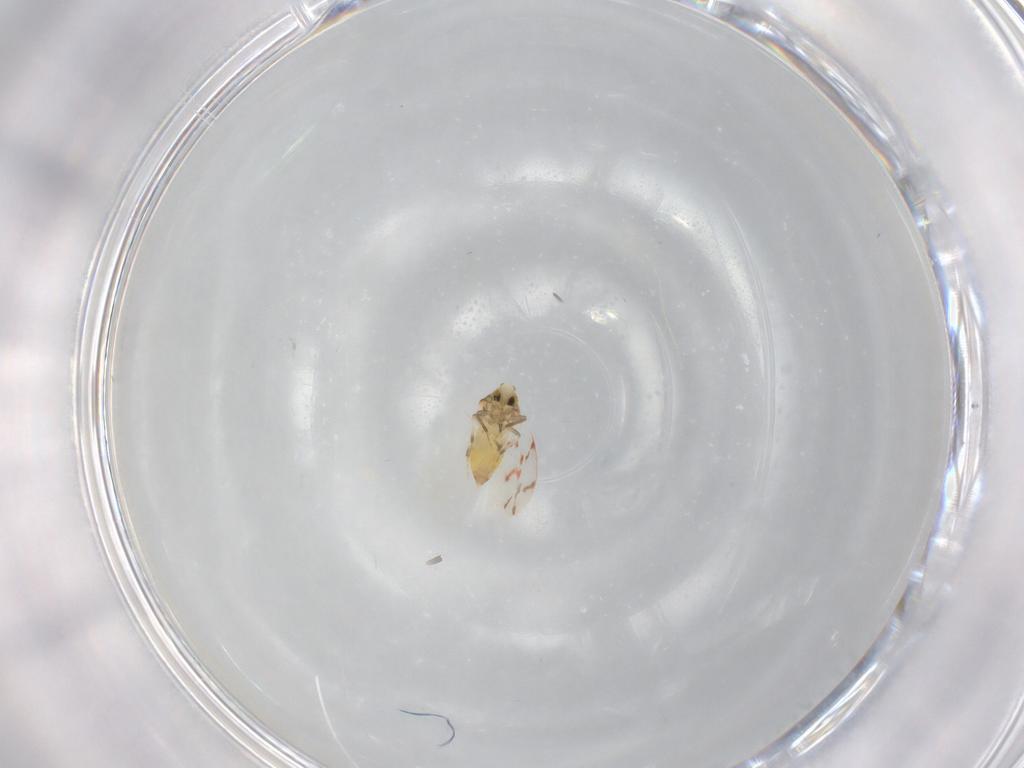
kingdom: Animalia
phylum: Arthropoda
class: Insecta
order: Hemiptera
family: Aleyrodidae
